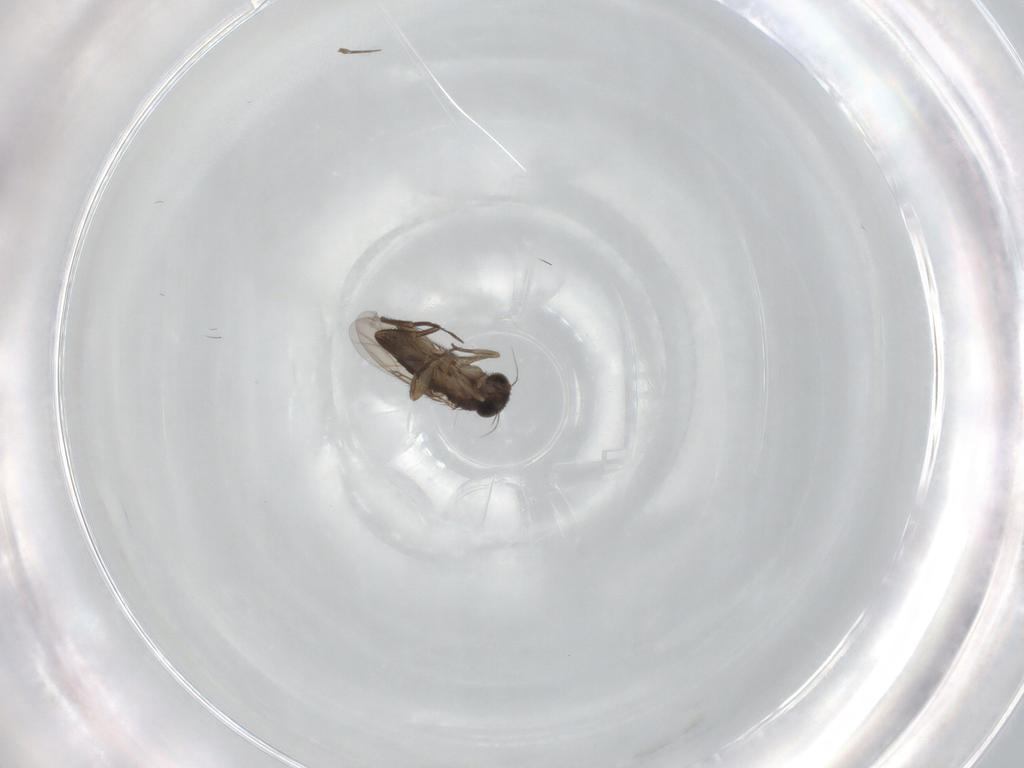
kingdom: Animalia
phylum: Arthropoda
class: Insecta
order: Diptera
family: Phoridae
